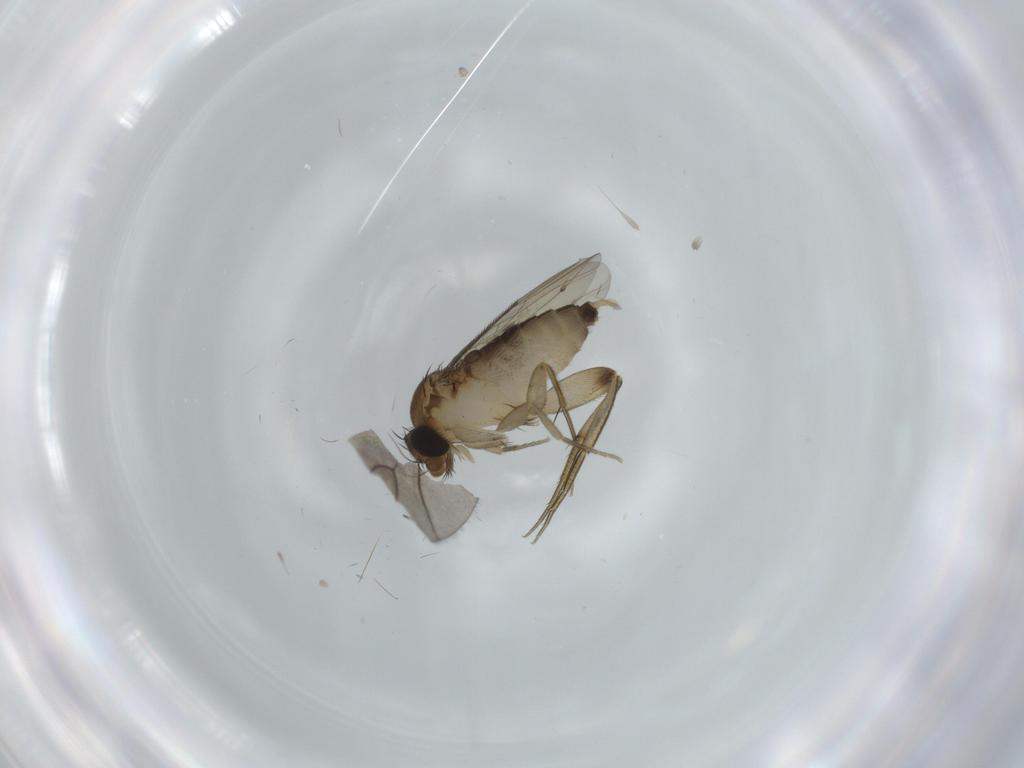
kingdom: Animalia
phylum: Arthropoda
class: Insecta
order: Diptera
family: Phoridae
